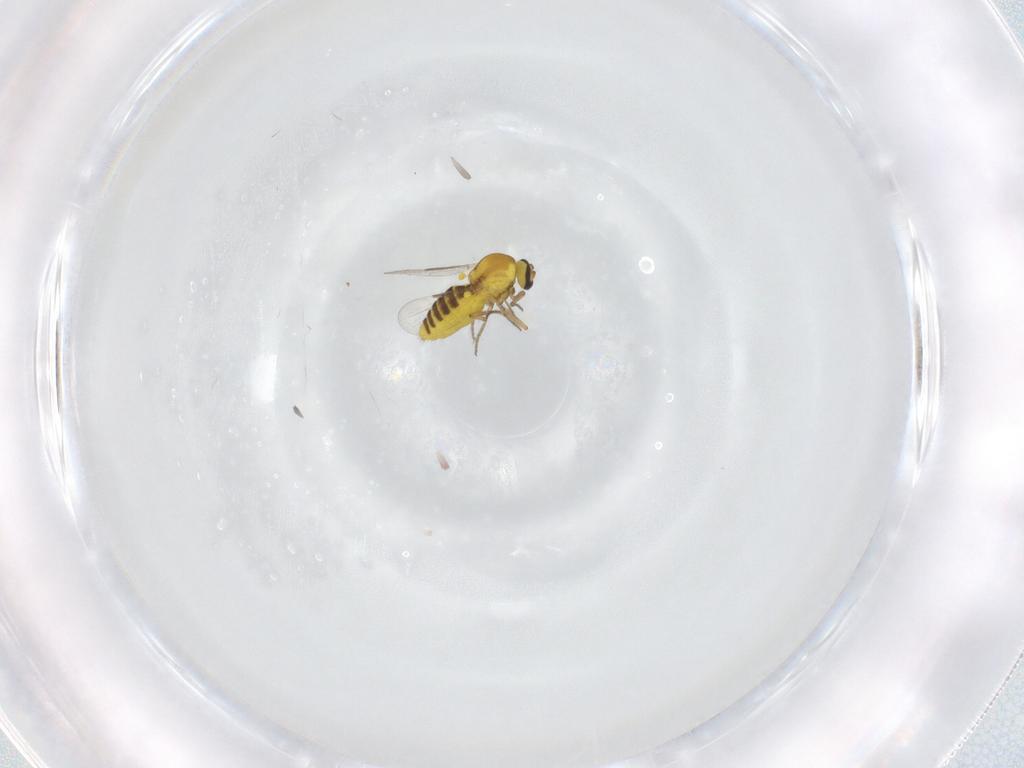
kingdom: Animalia
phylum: Arthropoda
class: Insecta
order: Diptera
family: Ceratopogonidae
